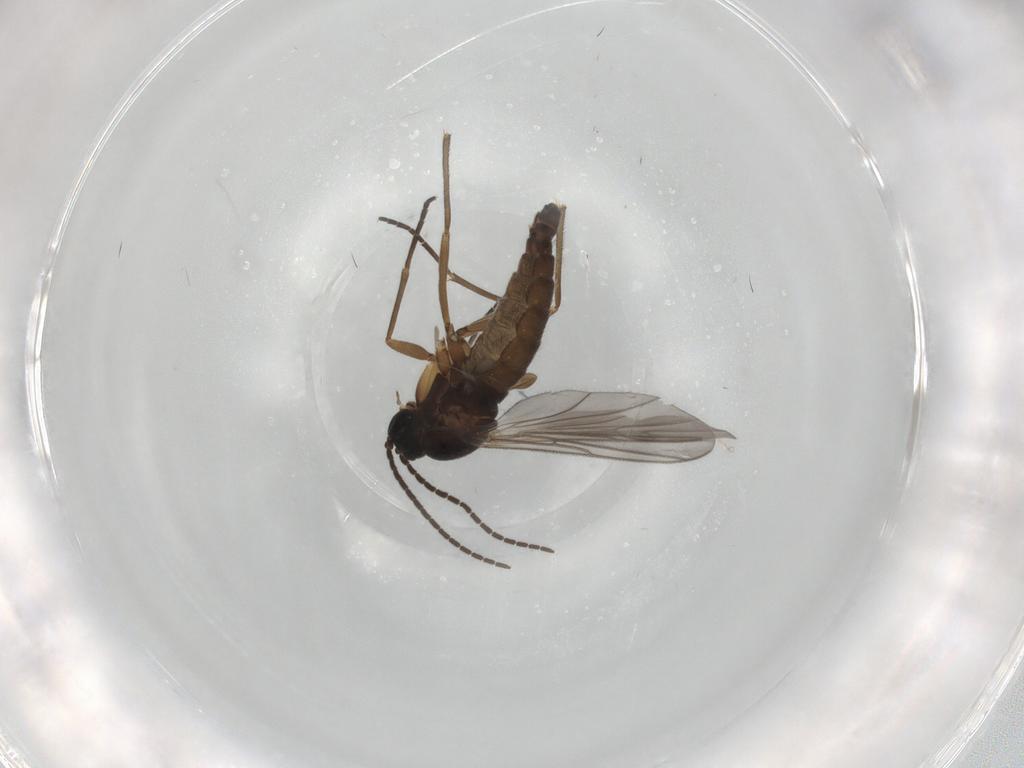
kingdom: Animalia
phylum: Arthropoda
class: Insecta
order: Diptera
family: Sciaridae
